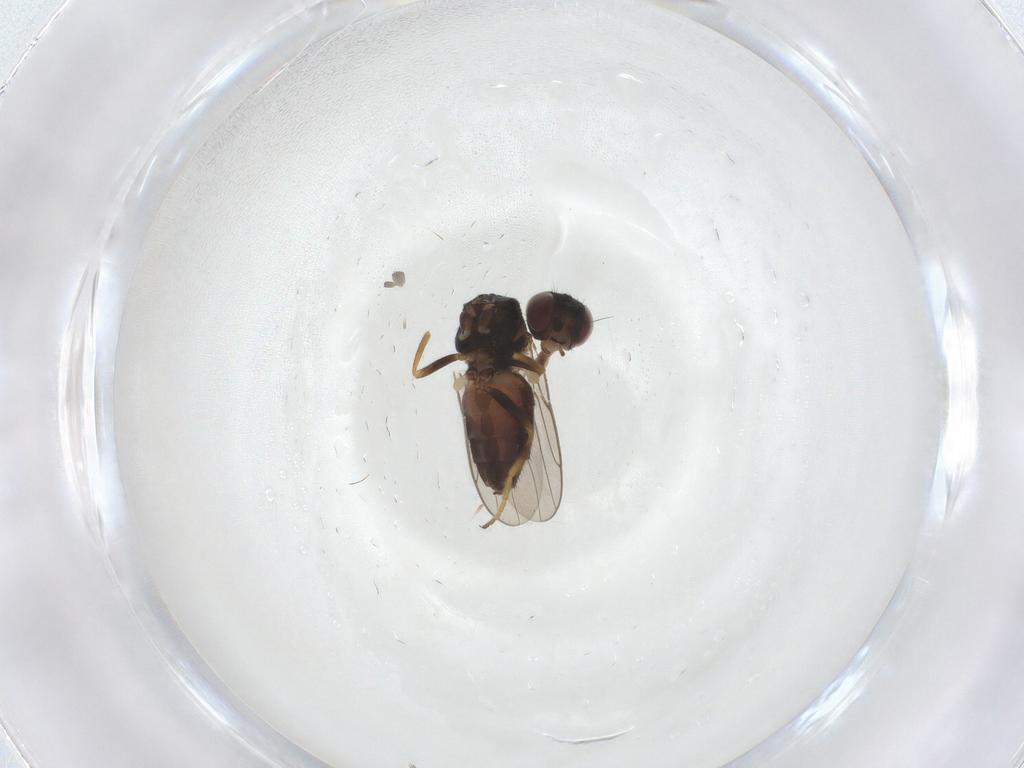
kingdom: Animalia
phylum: Arthropoda
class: Insecta
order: Diptera
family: Chloropidae
